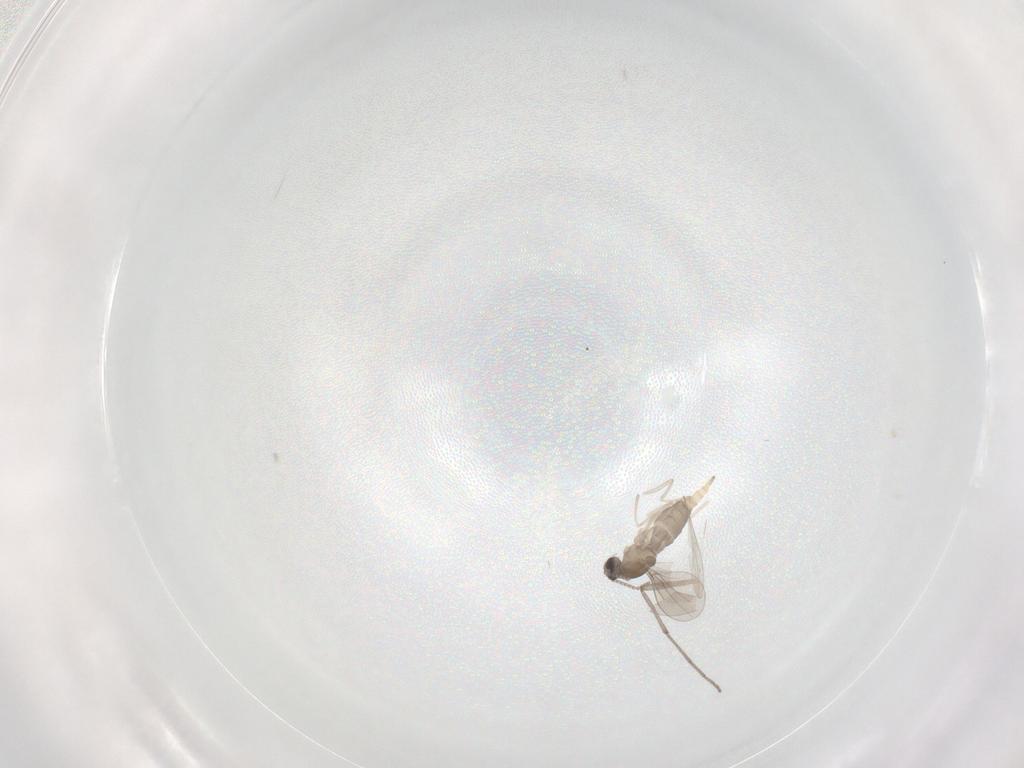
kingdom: Animalia
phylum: Arthropoda
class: Insecta
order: Diptera
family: Cecidomyiidae
